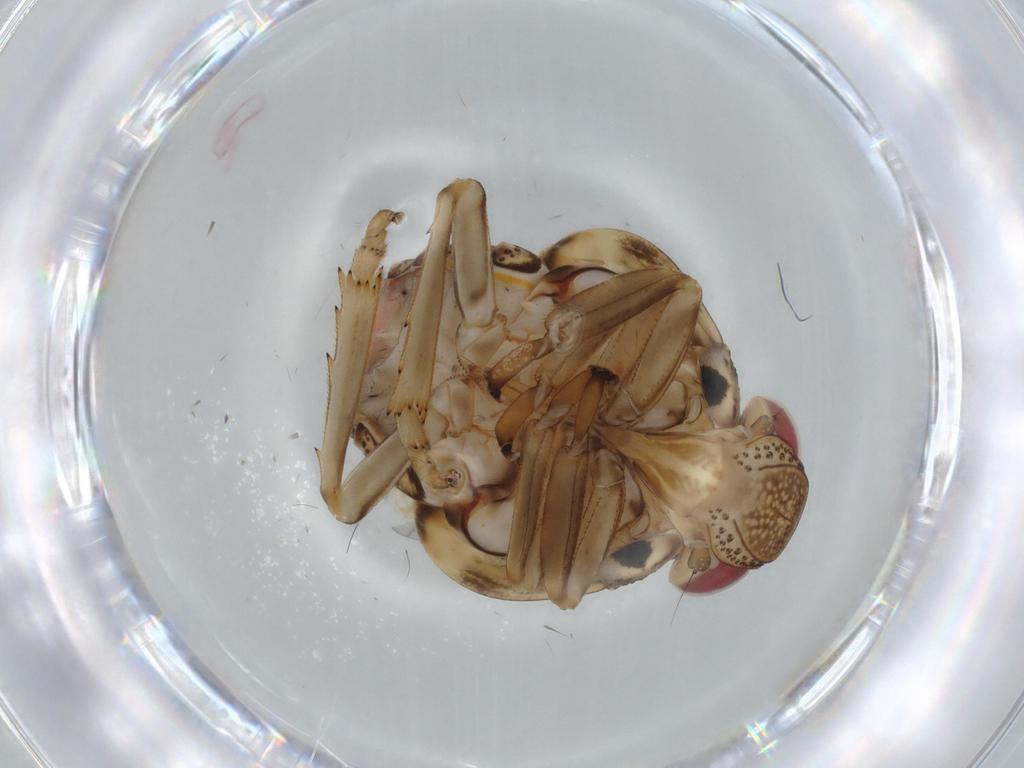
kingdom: Animalia
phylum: Arthropoda
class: Insecta
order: Hemiptera
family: Issidae
